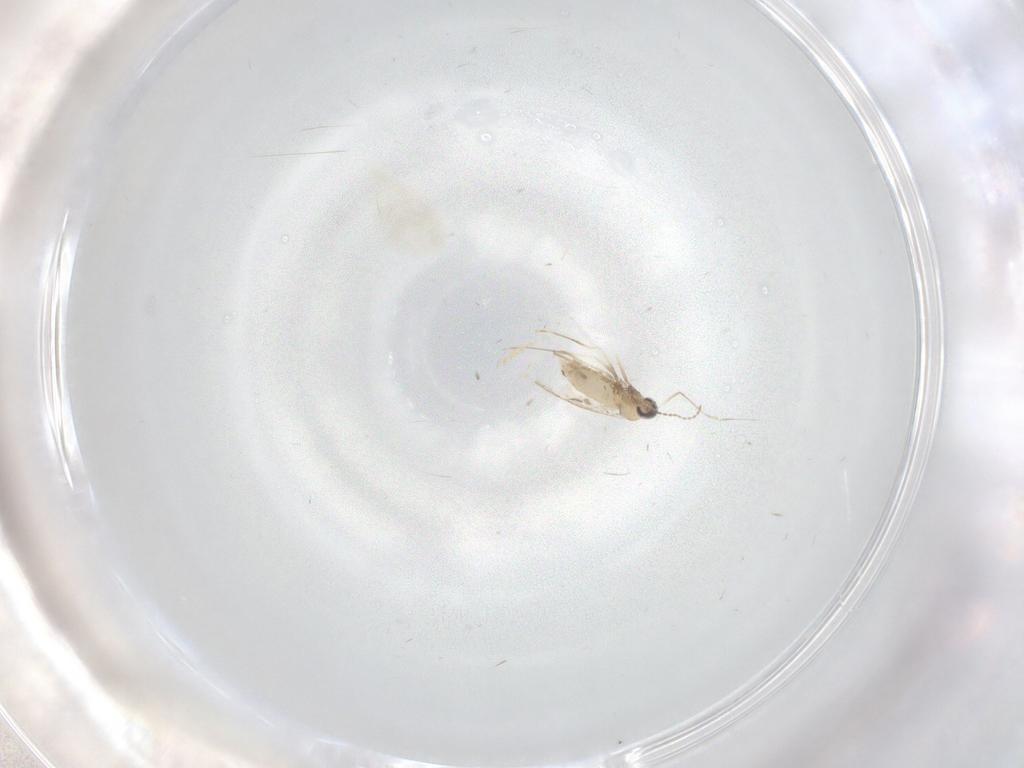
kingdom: Animalia
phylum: Arthropoda
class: Insecta
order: Diptera
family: Cecidomyiidae
